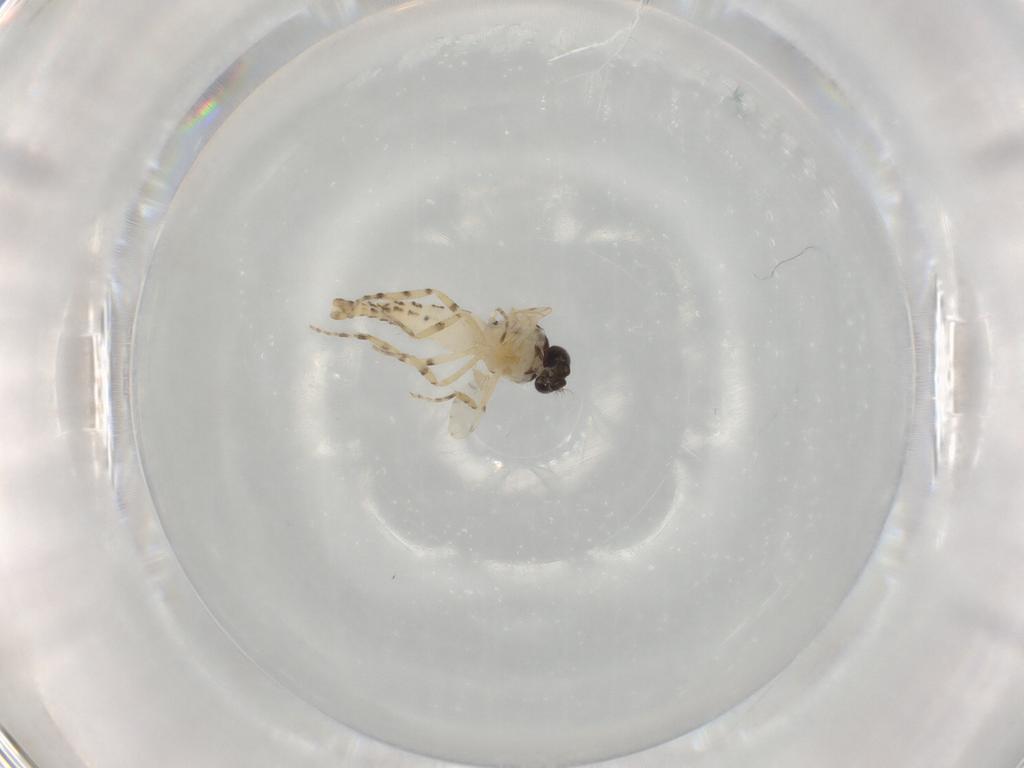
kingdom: Animalia
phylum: Arthropoda
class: Insecta
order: Diptera
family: Ceratopogonidae
